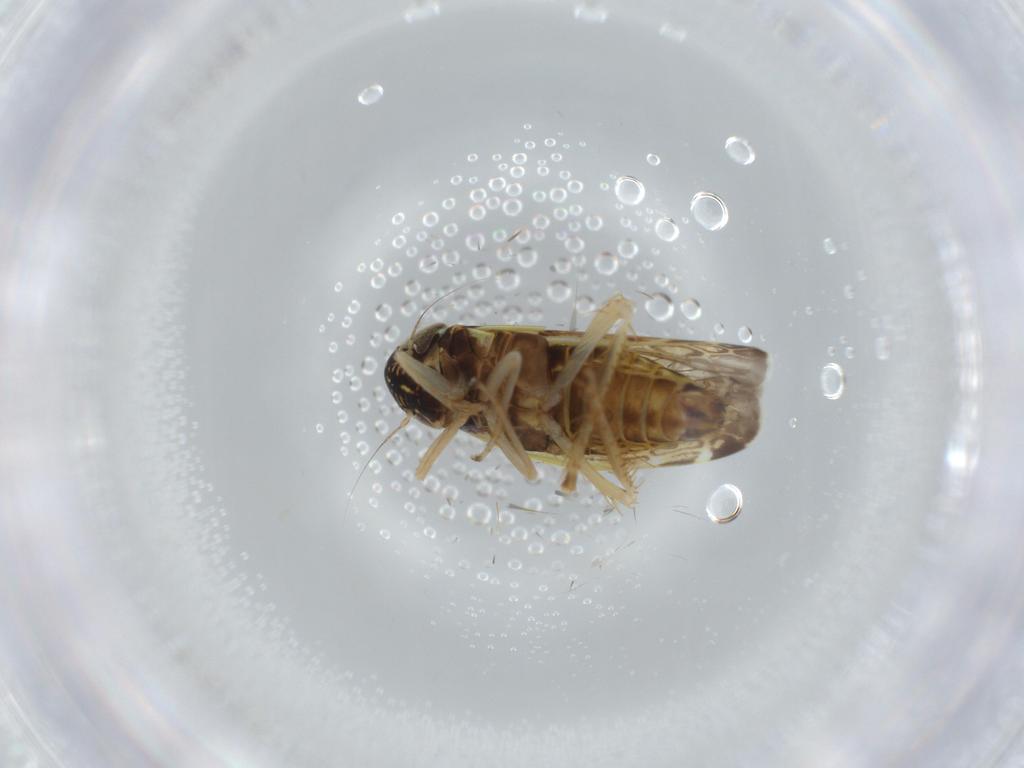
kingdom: Animalia
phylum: Arthropoda
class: Insecta
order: Hemiptera
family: Cicadellidae
